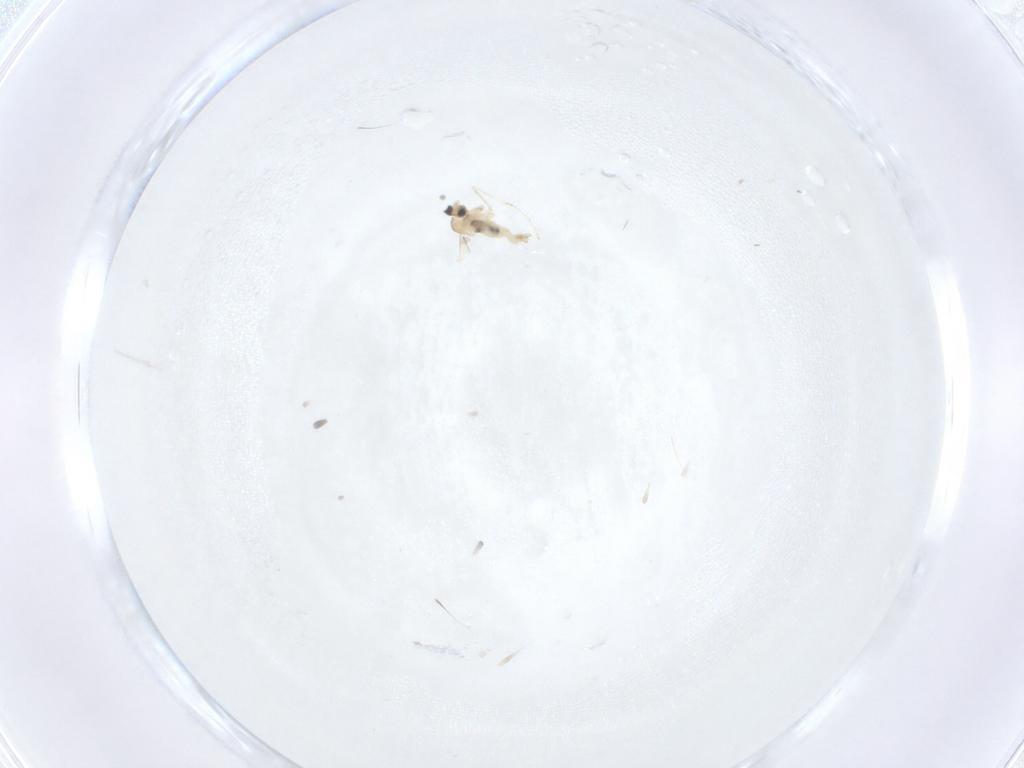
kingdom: Animalia
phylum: Arthropoda
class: Insecta
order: Diptera
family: Cecidomyiidae
